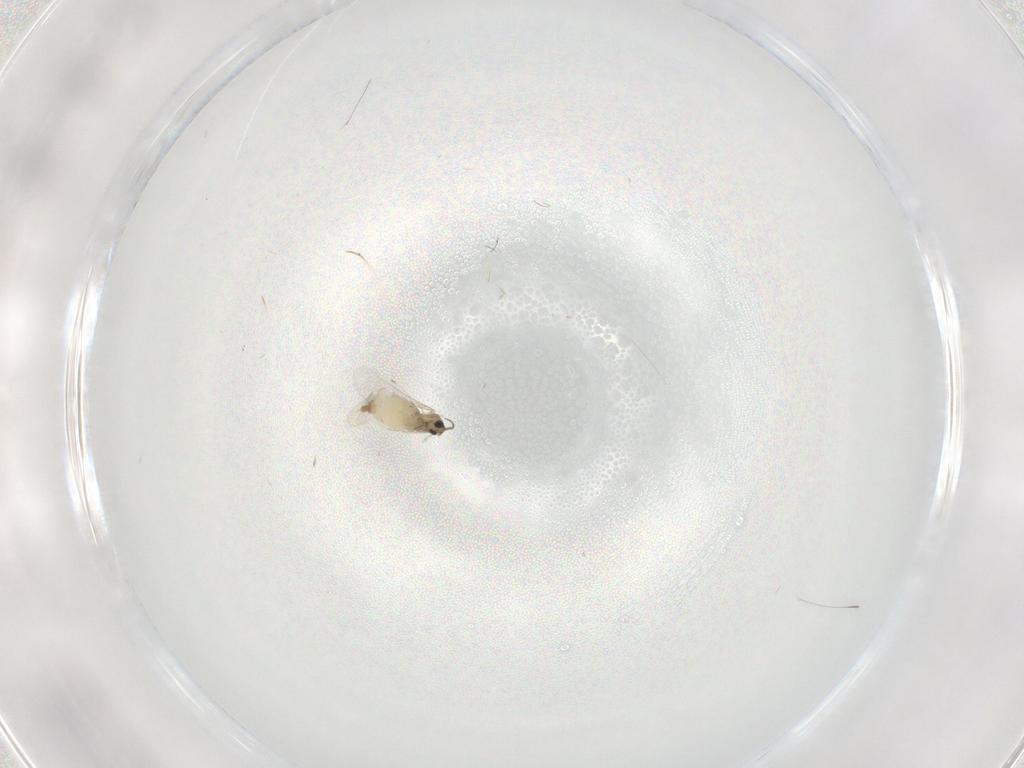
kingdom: Animalia
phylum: Arthropoda
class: Insecta
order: Diptera
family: Dolichopodidae
